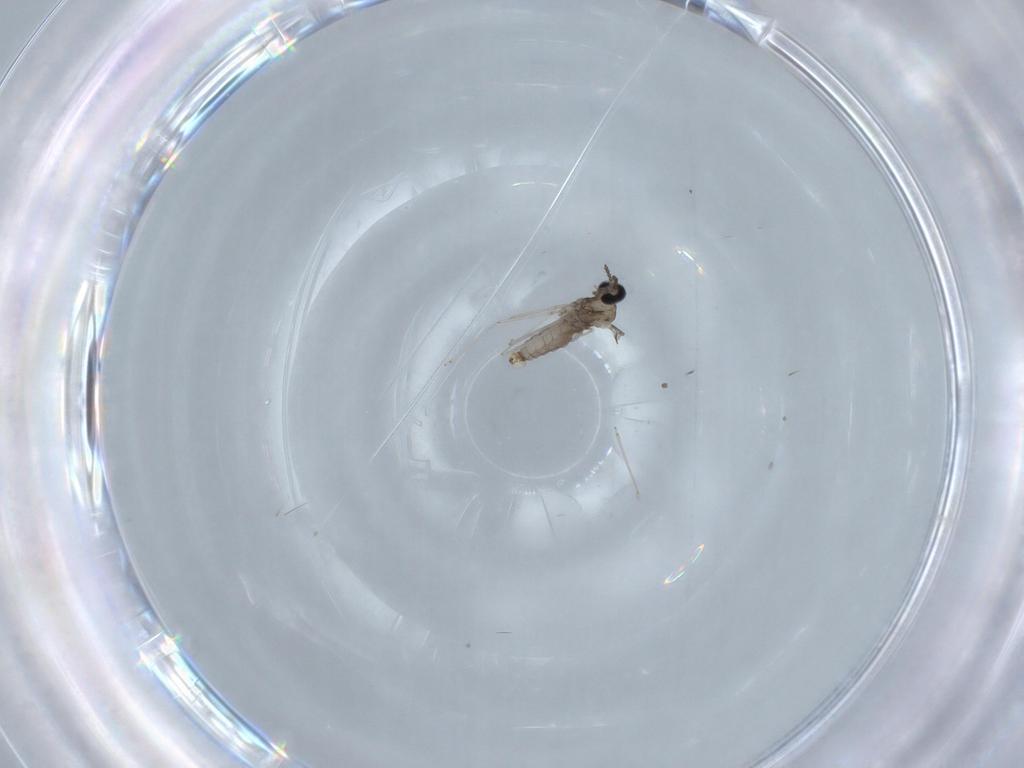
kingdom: Animalia
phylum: Arthropoda
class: Insecta
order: Diptera
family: Cecidomyiidae
